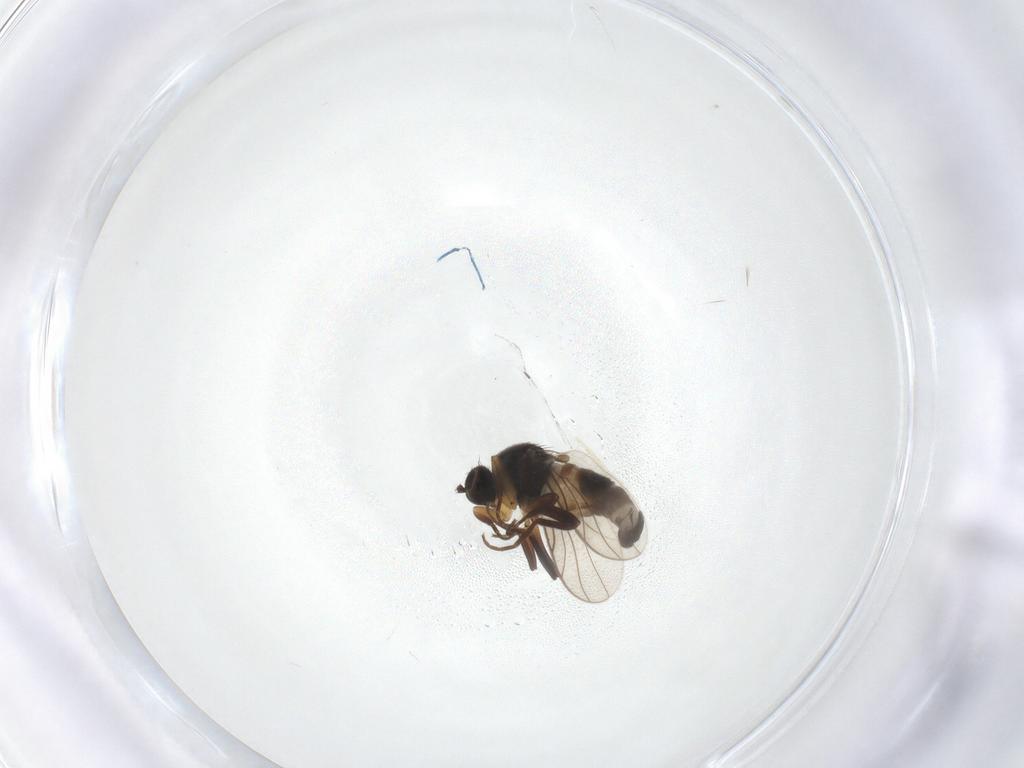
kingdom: Animalia
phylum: Arthropoda
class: Insecta
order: Diptera
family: Hybotidae
